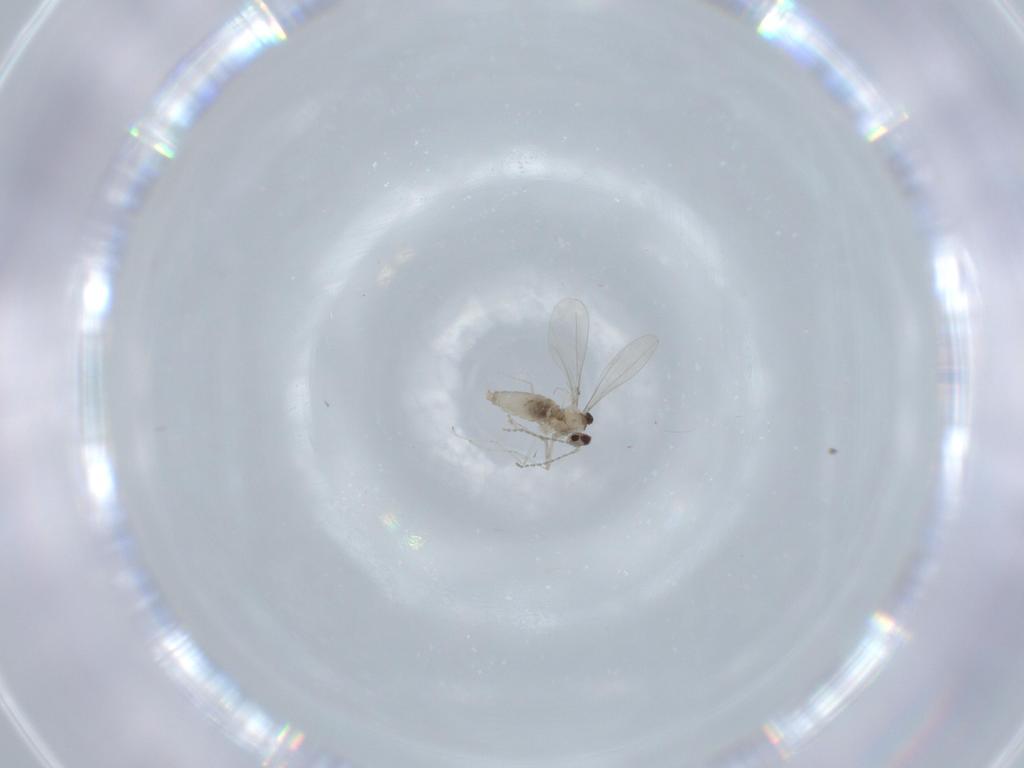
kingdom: Animalia
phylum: Arthropoda
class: Insecta
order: Diptera
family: Cecidomyiidae
